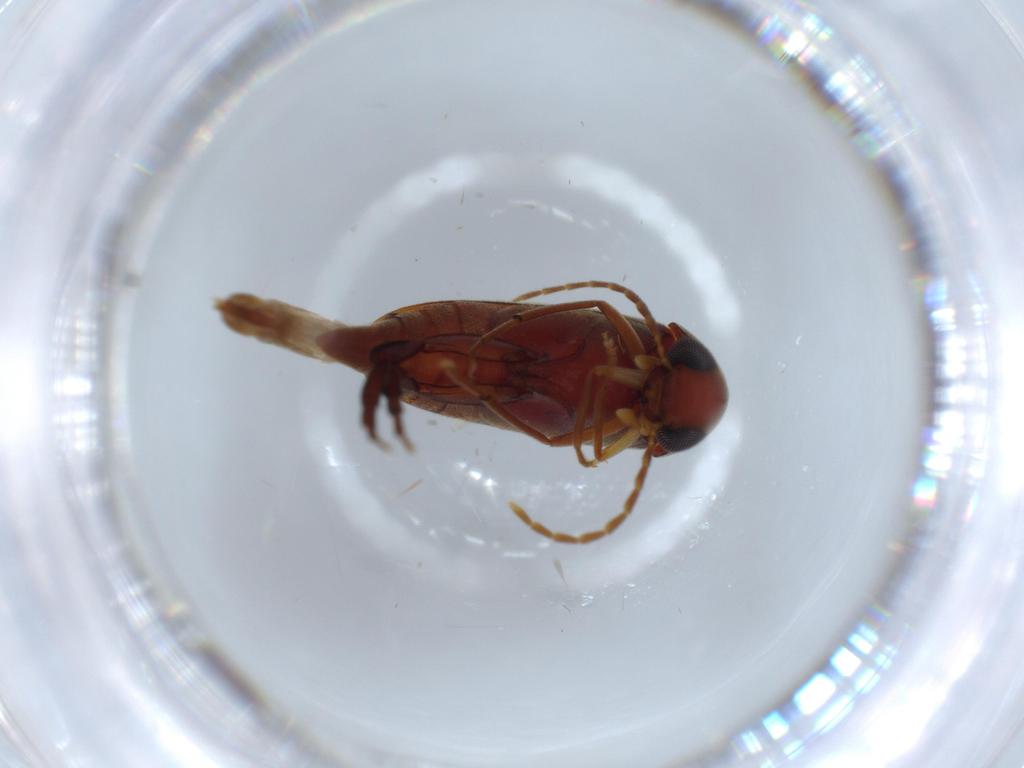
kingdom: Animalia
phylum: Arthropoda
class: Insecta
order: Coleoptera
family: Bostrichidae
